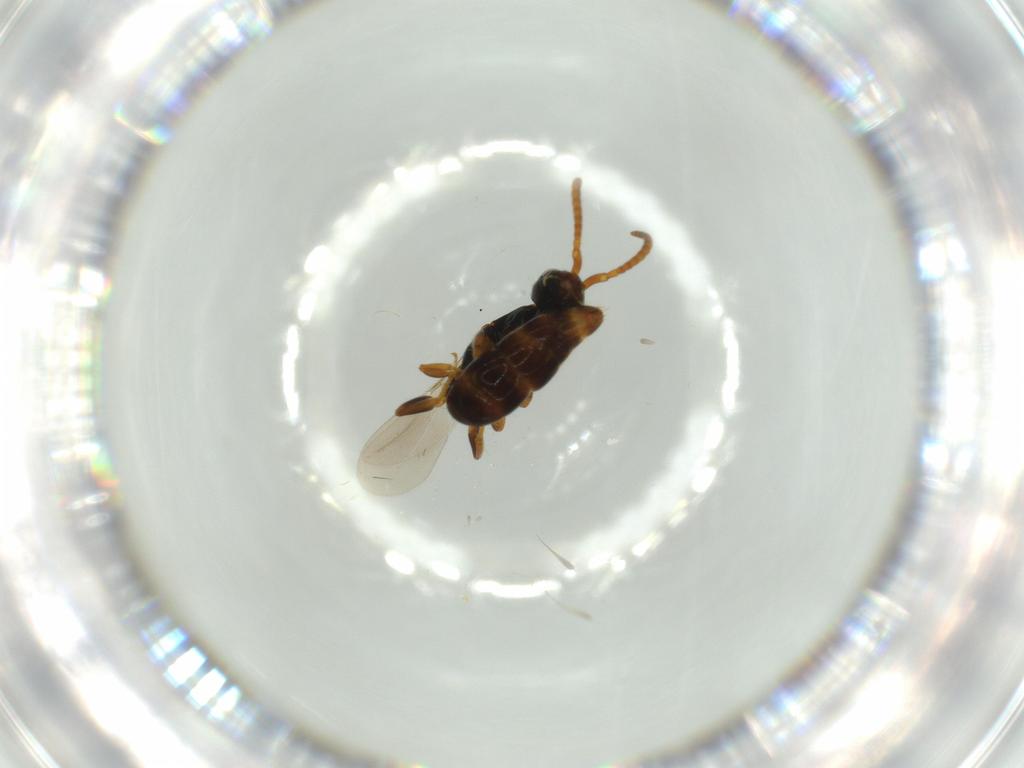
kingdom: Animalia
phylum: Arthropoda
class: Insecta
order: Hymenoptera
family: Bethylidae
